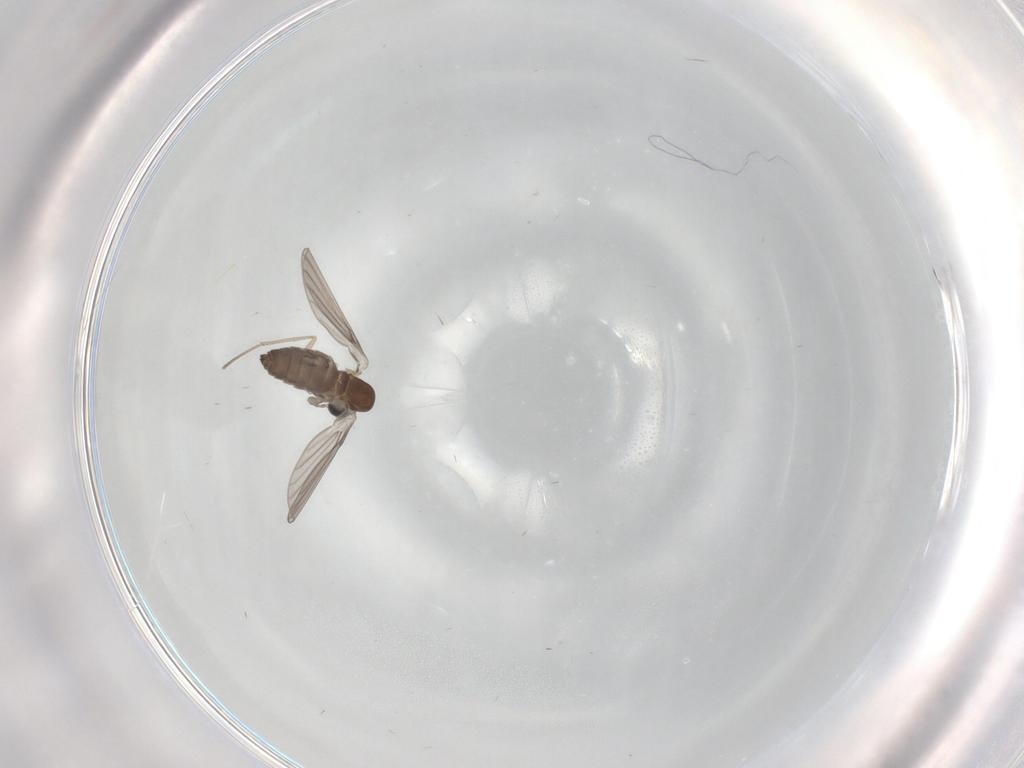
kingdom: Animalia
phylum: Arthropoda
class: Insecta
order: Diptera
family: Psychodidae
